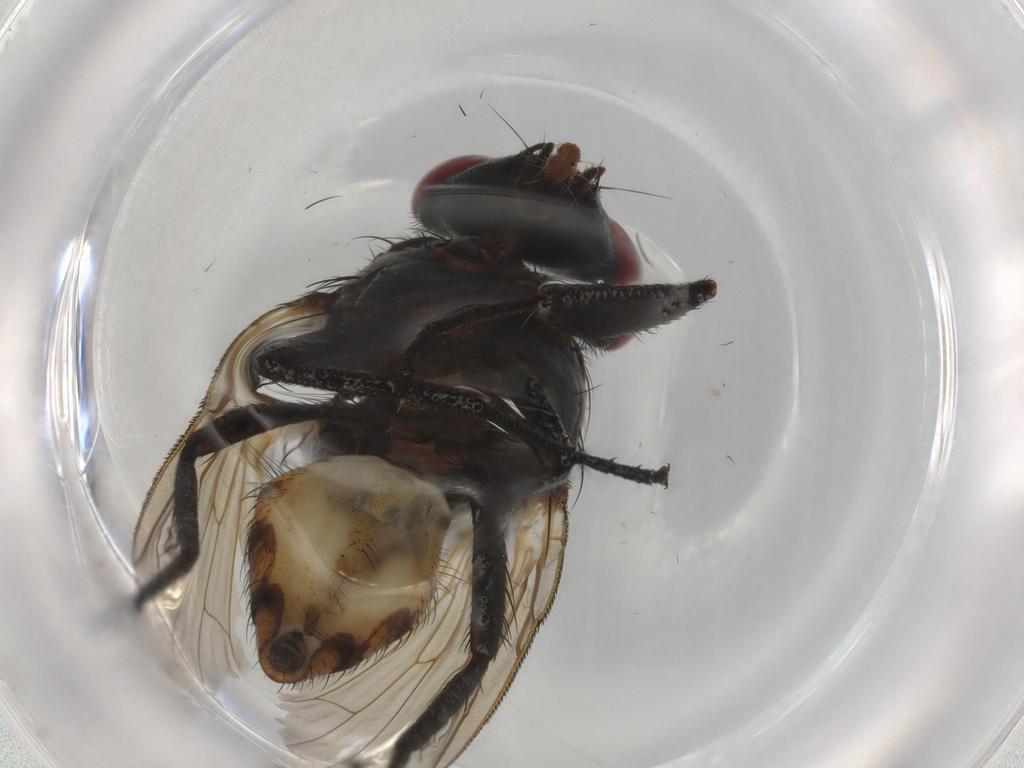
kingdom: Animalia
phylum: Arthropoda
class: Insecta
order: Diptera
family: Anthomyiidae
